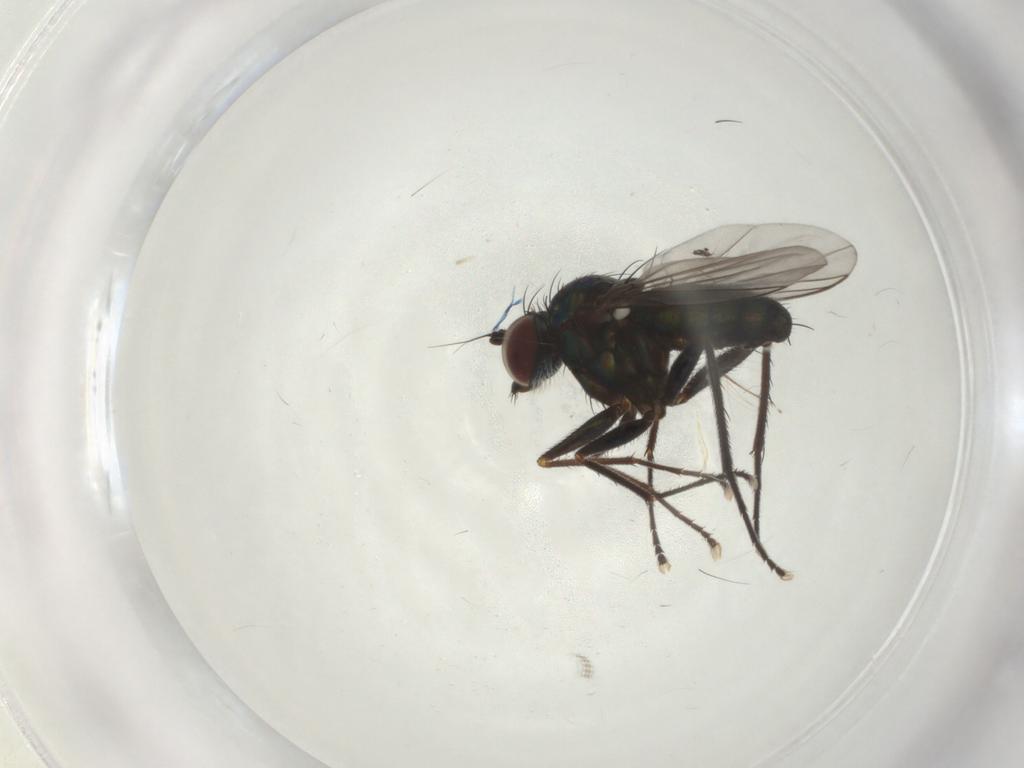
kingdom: Animalia
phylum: Arthropoda
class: Insecta
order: Diptera
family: Dolichopodidae
